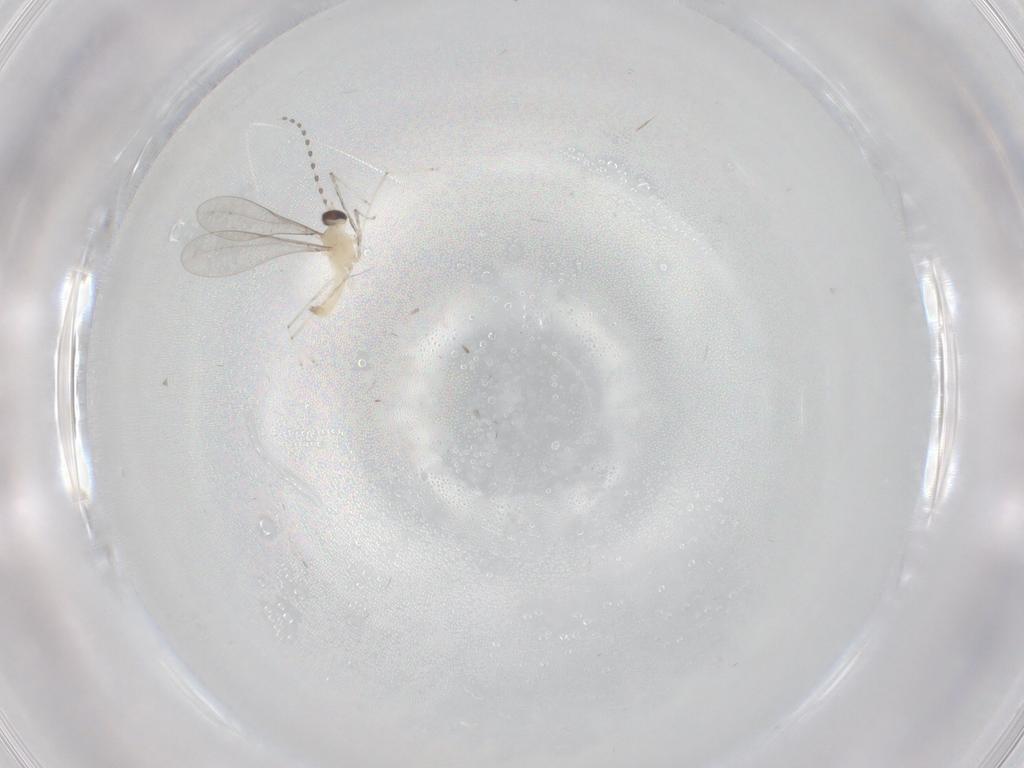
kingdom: Animalia
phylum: Arthropoda
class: Insecta
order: Diptera
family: Cecidomyiidae
